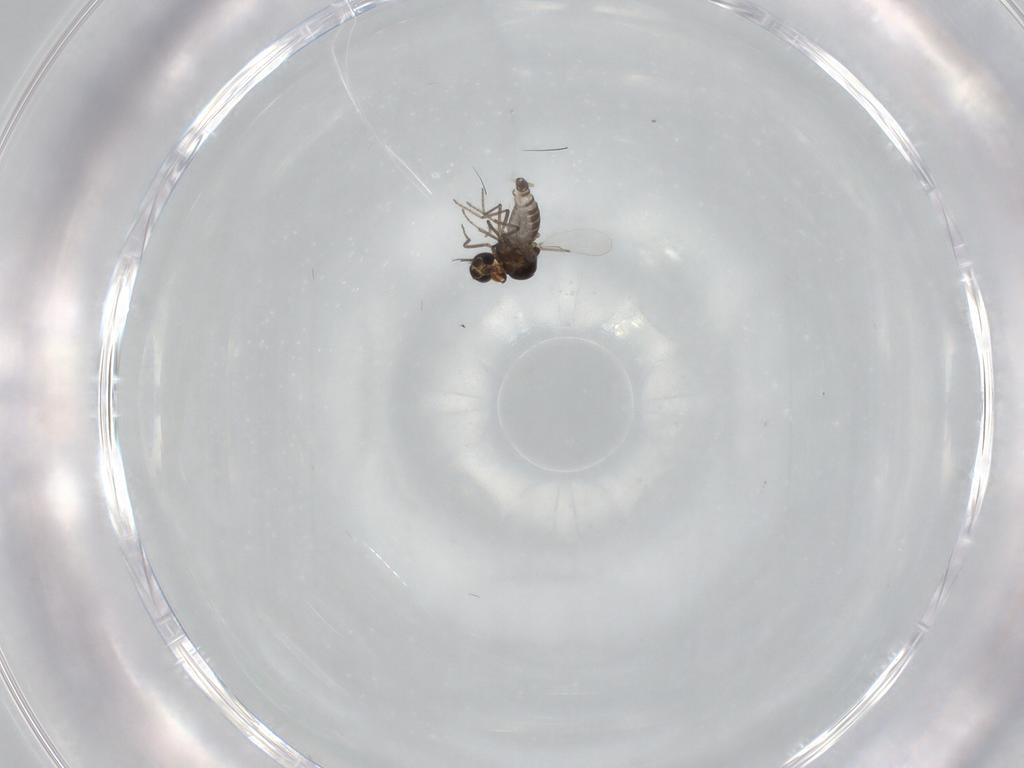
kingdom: Animalia
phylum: Arthropoda
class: Insecta
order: Diptera
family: Ceratopogonidae
